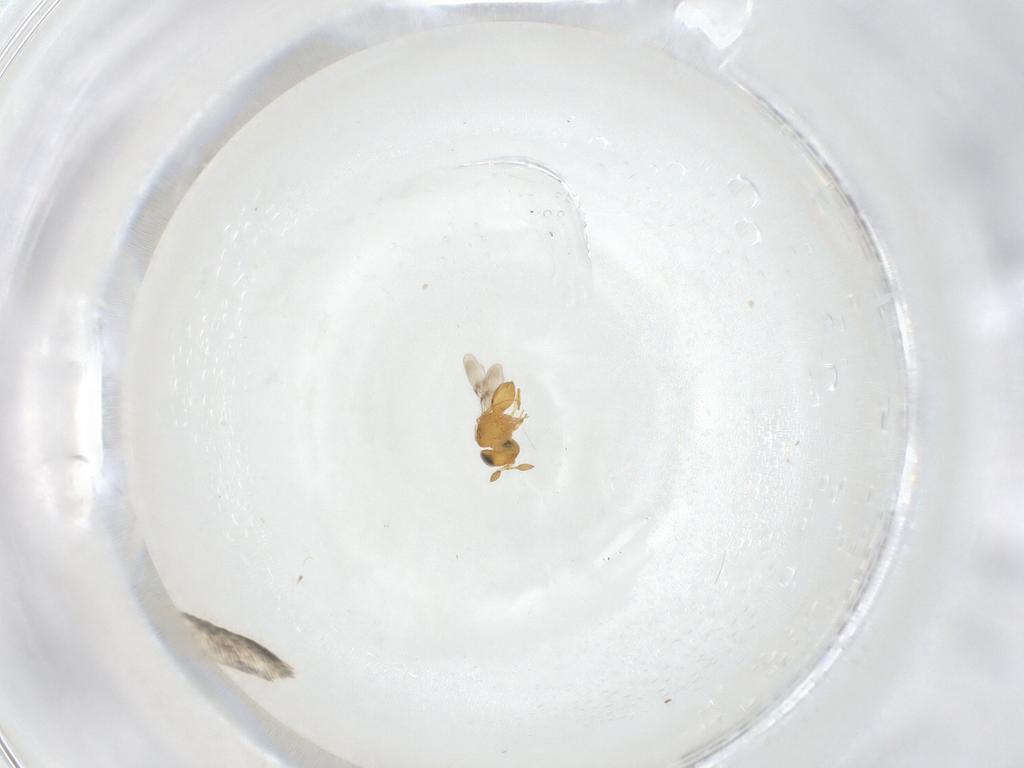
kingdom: Animalia
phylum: Arthropoda
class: Insecta
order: Hymenoptera
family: Scelionidae
